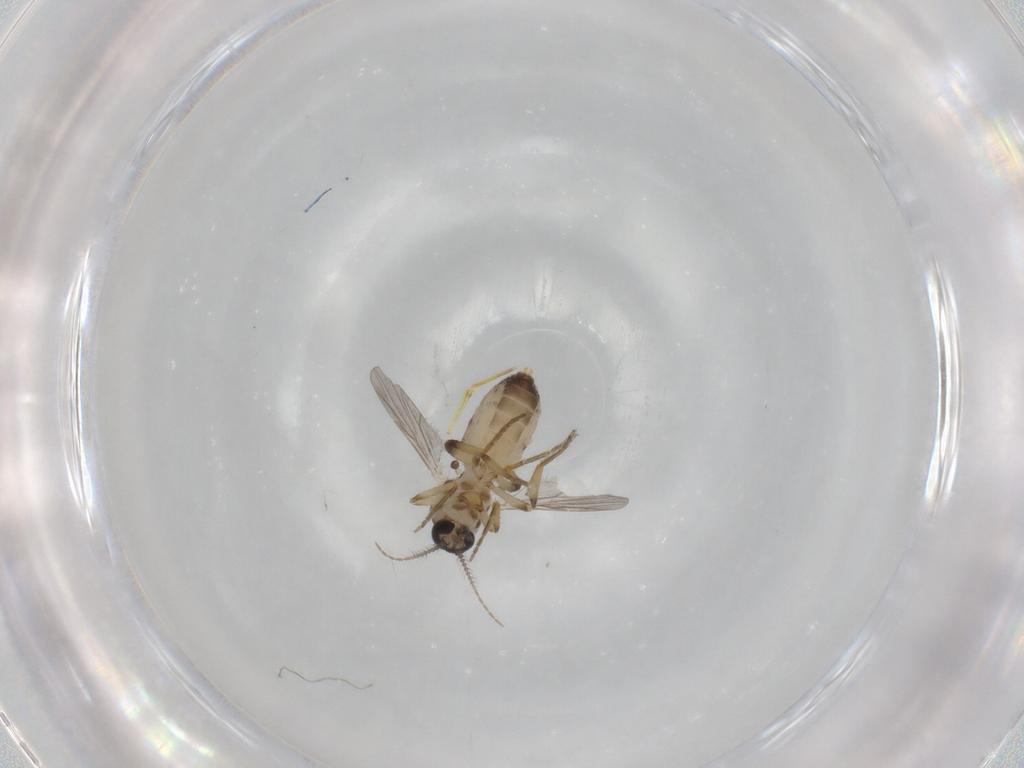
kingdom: Animalia
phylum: Arthropoda
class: Insecta
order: Diptera
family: Ceratopogonidae
